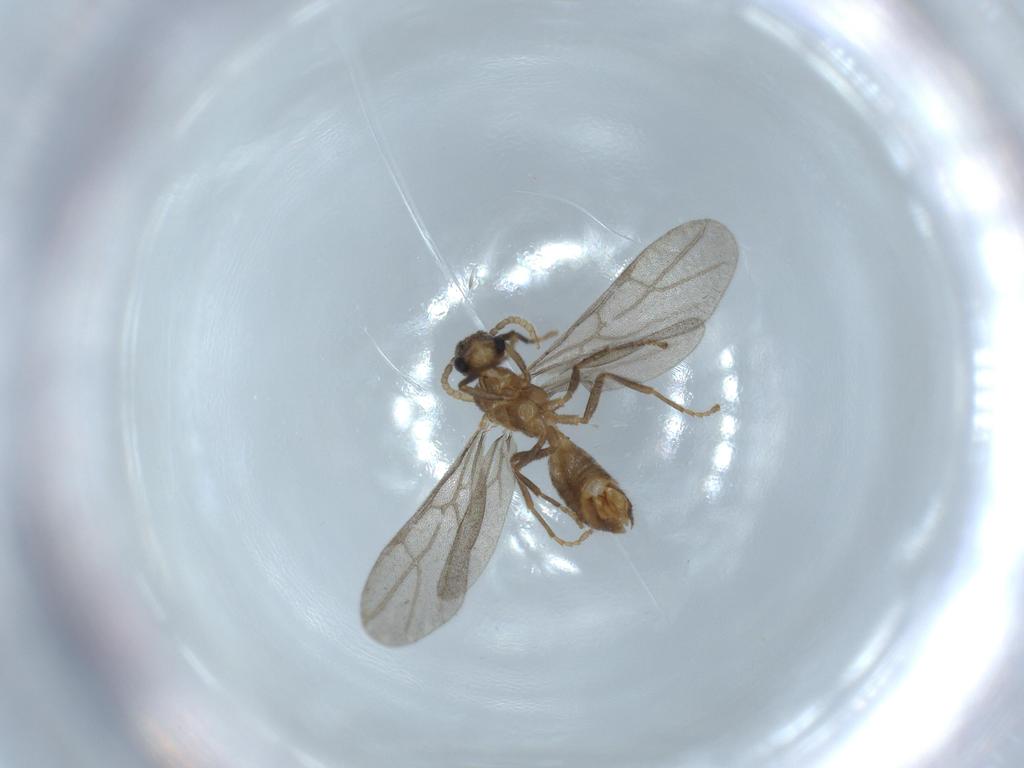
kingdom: Animalia
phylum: Arthropoda
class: Insecta
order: Hymenoptera
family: Formicidae
